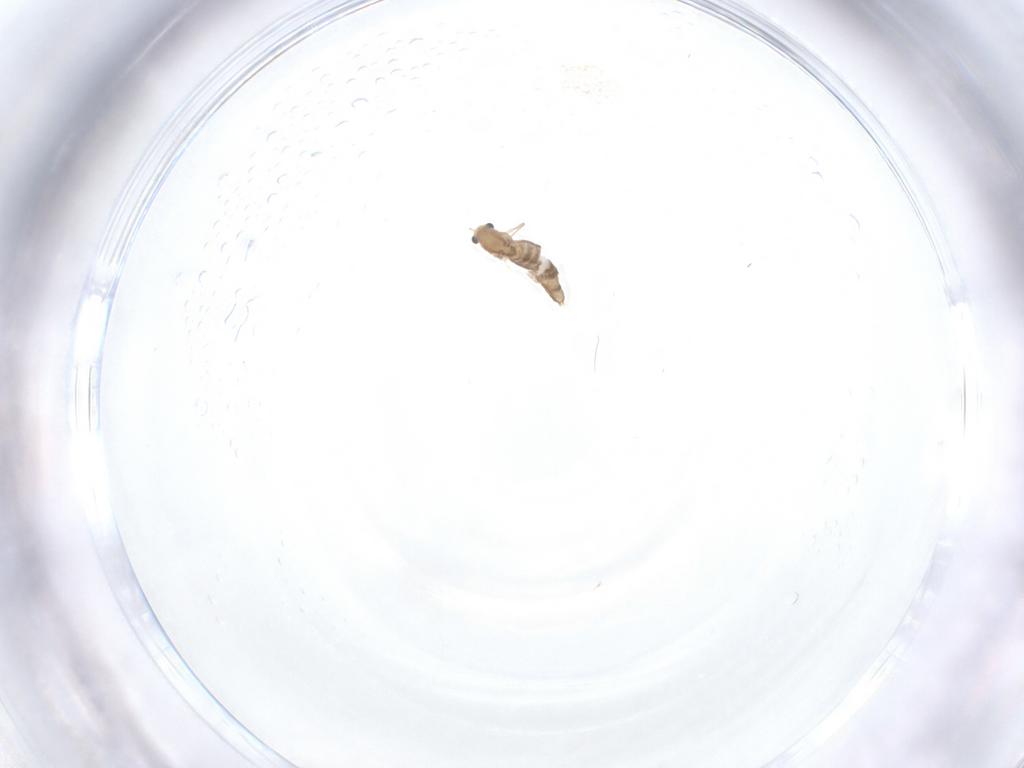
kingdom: Animalia
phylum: Arthropoda
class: Insecta
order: Diptera
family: Chironomidae
